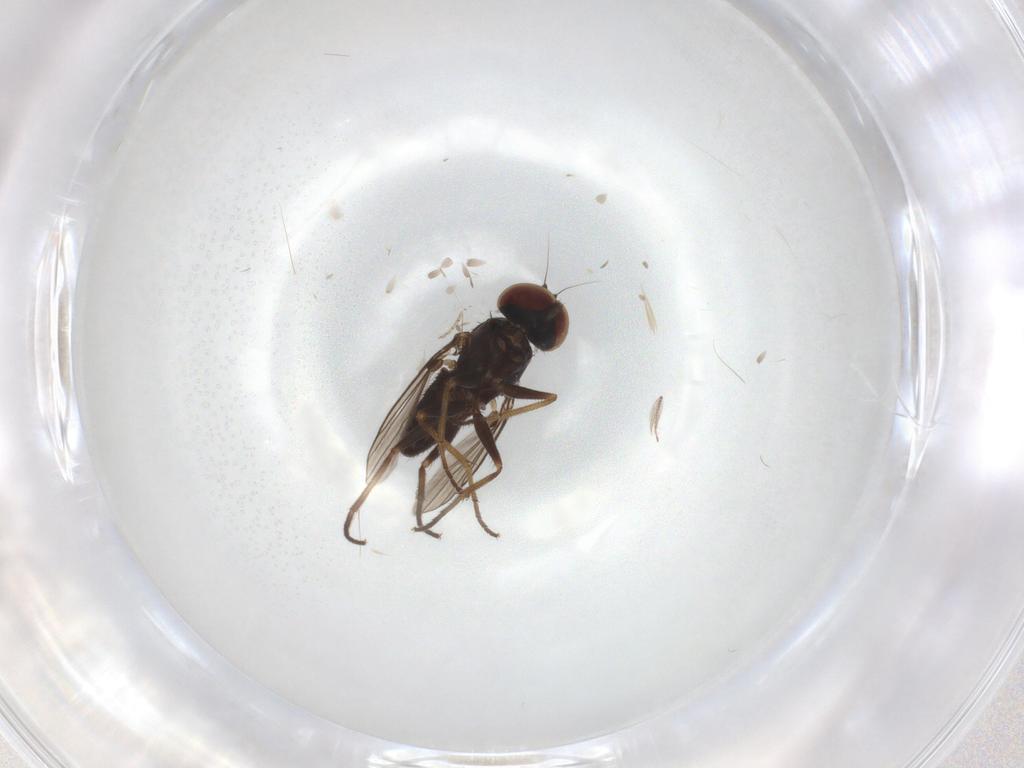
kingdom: Animalia
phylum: Arthropoda
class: Insecta
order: Diptera
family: Dolichopodidae
